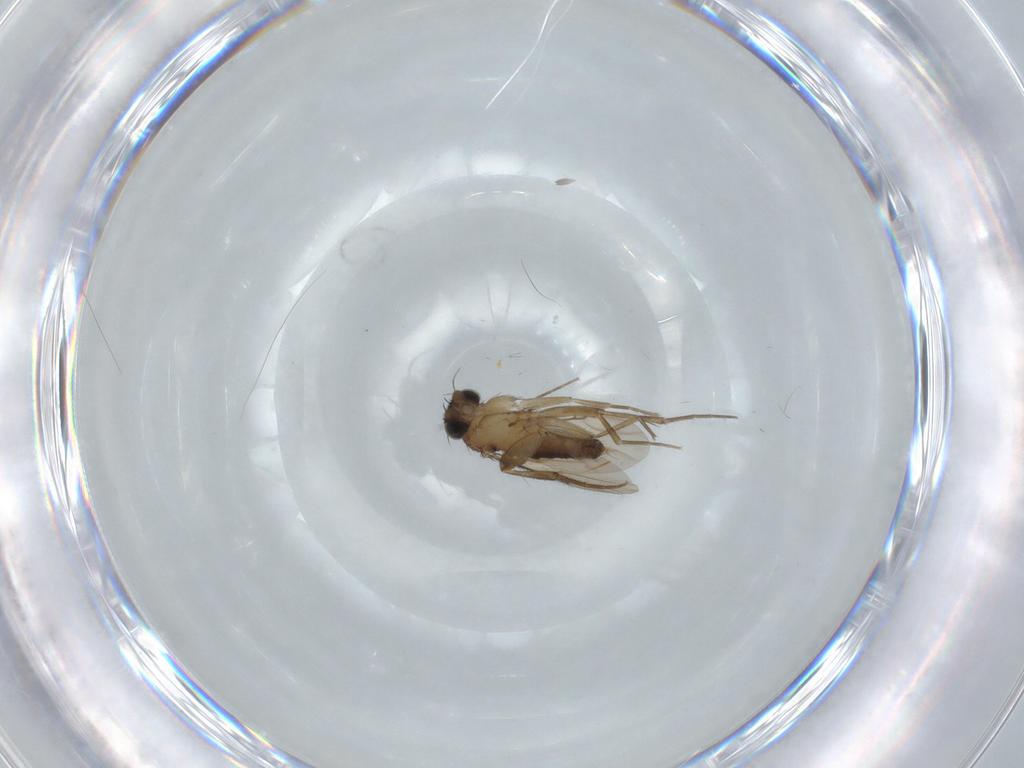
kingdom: Animalia
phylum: Arthropoda
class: Insecta
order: Diptera
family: Phoridae
